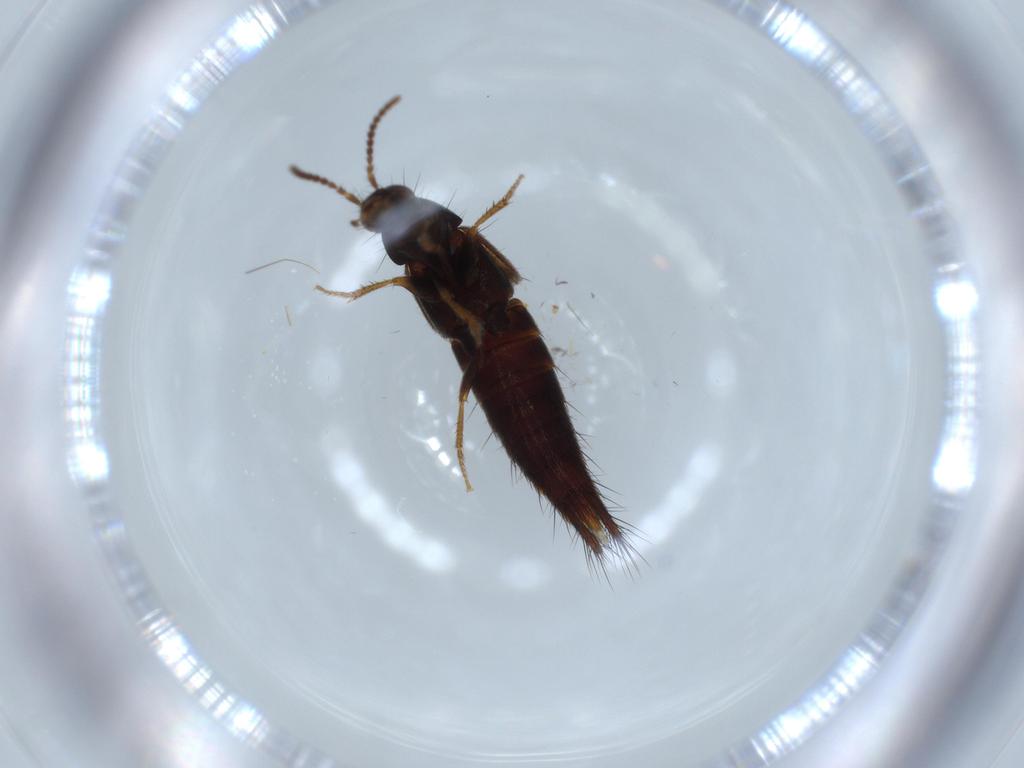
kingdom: Animalia
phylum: Arthropoda
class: Insecta
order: Coleoptera
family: Staphylinidae
